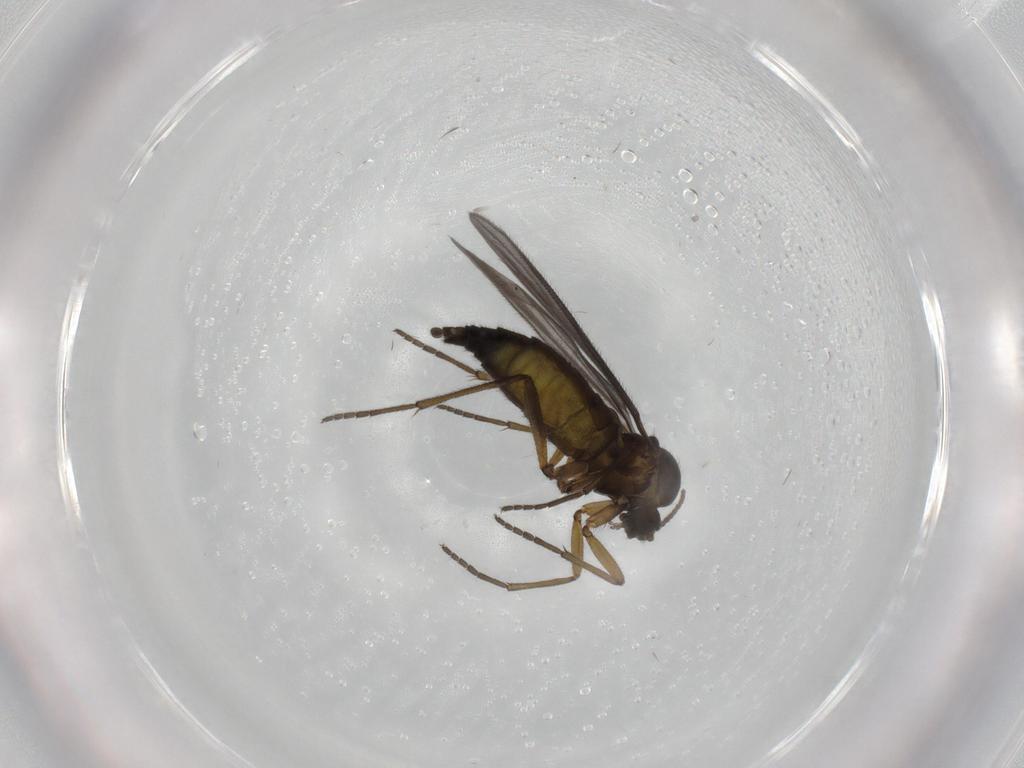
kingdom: Animalia
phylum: Arthropoda
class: Insecta
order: Diptera
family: Sciaridae
